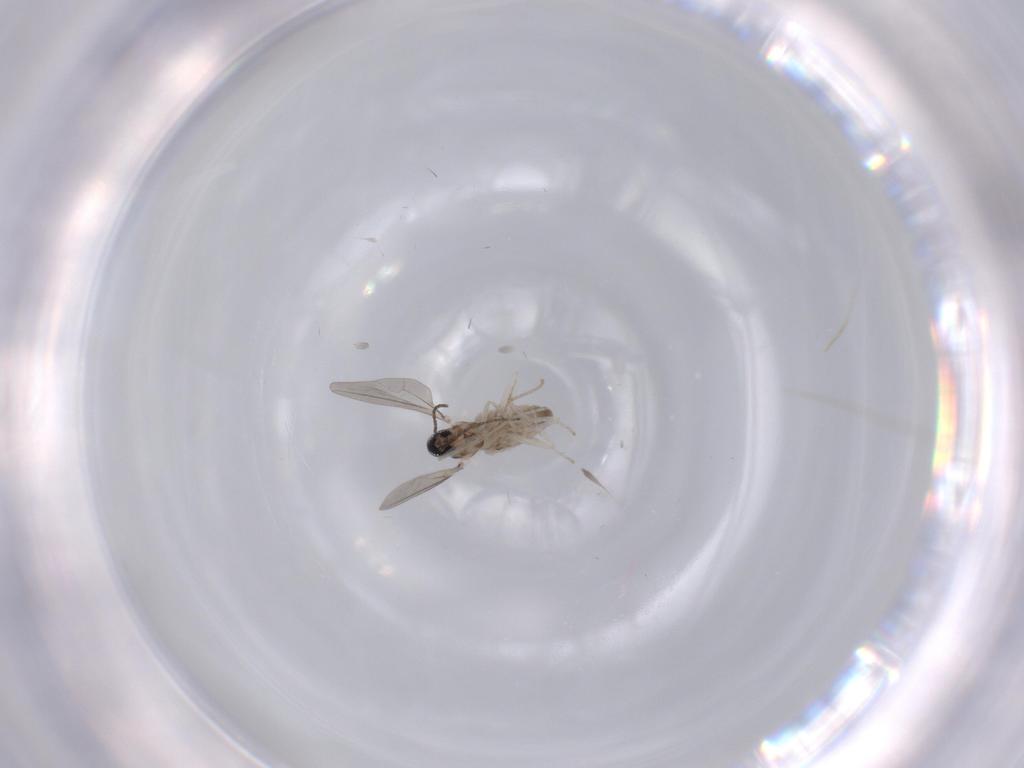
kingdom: Animalia
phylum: Arthropoda
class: Insecta
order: Diptera
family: Cecidomyiidae
